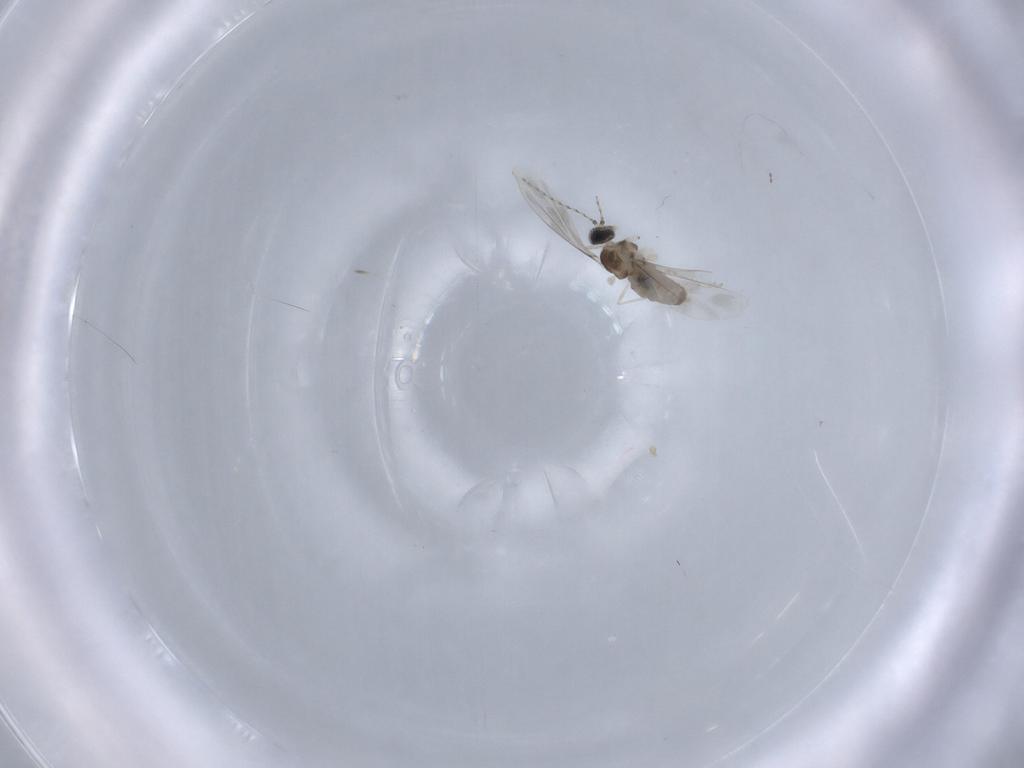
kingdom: Animalia
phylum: Arthropoda
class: Insecta
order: Diptera
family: Cecidomyiidae
